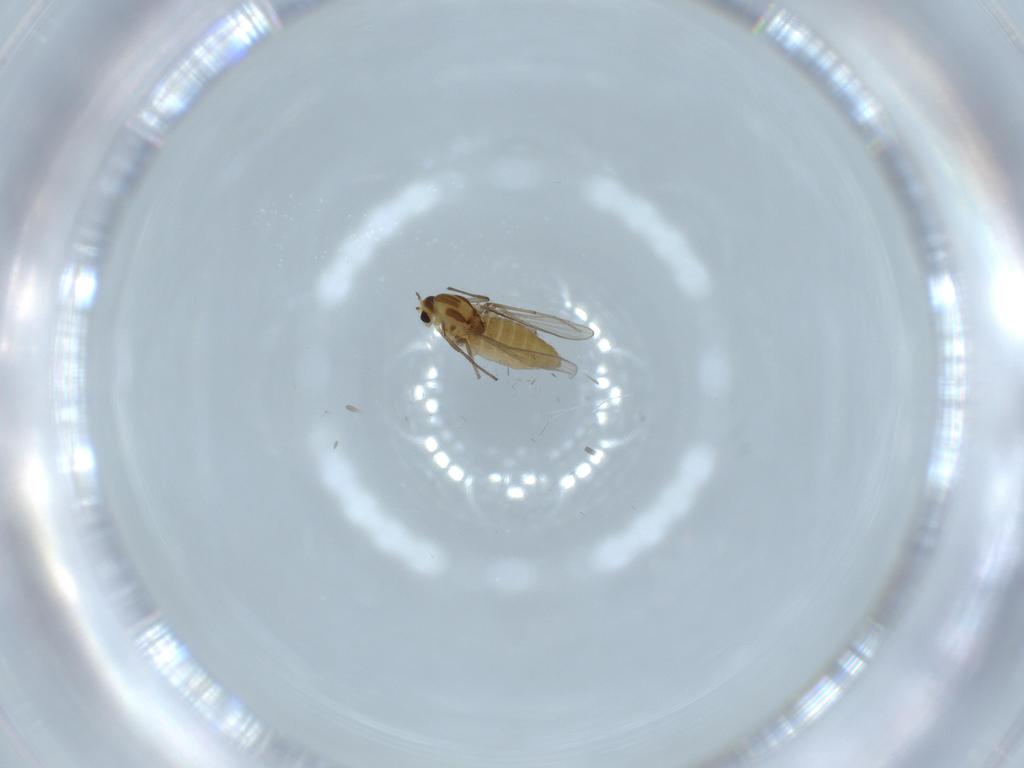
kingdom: Animalia
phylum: Arthropoda
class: Insecta
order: Diptera
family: Chironomidae
